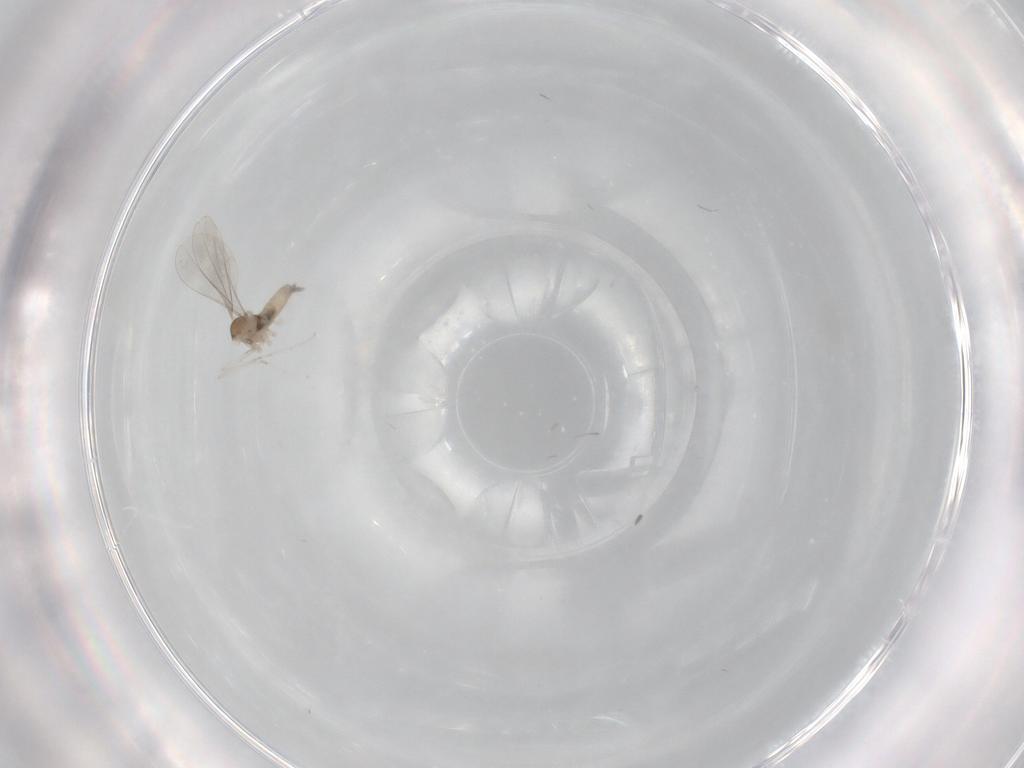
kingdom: Animalia
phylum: Arthropoda
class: Insecta
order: Diptera
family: Cecidomyiidae
